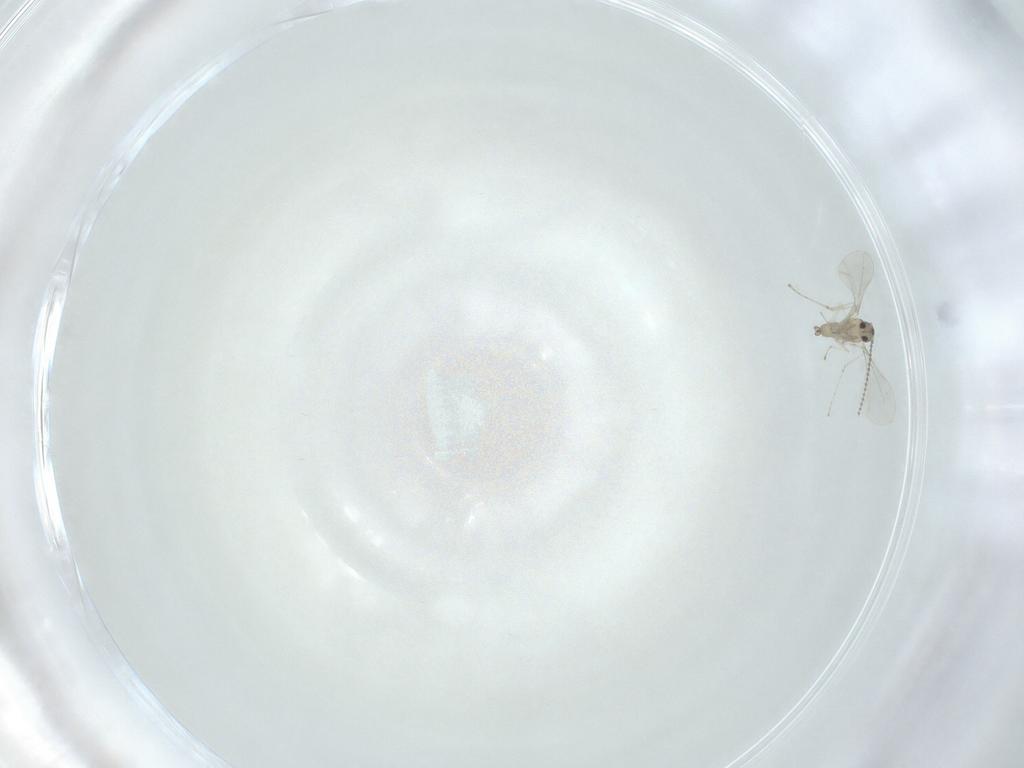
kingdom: Animalia
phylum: Arthropoda
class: Insecta
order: Diptera
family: Cecidomyiidae
